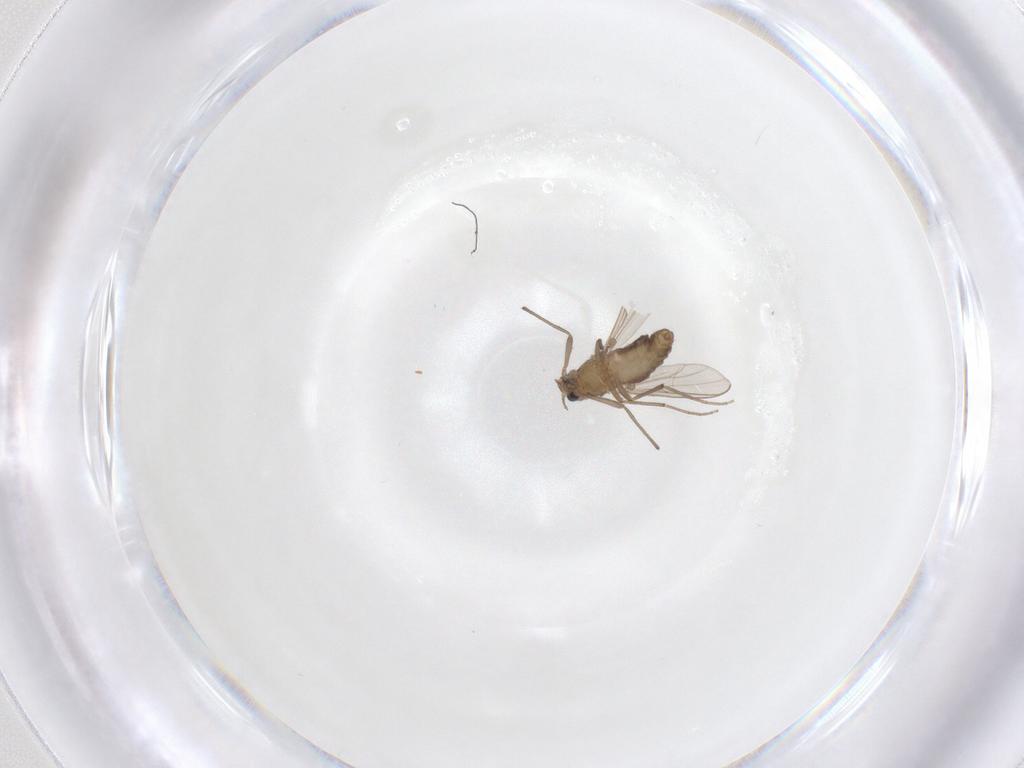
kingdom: Animalia
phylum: Arthropoda
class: Insecta
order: Diptera
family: Chironomidae
